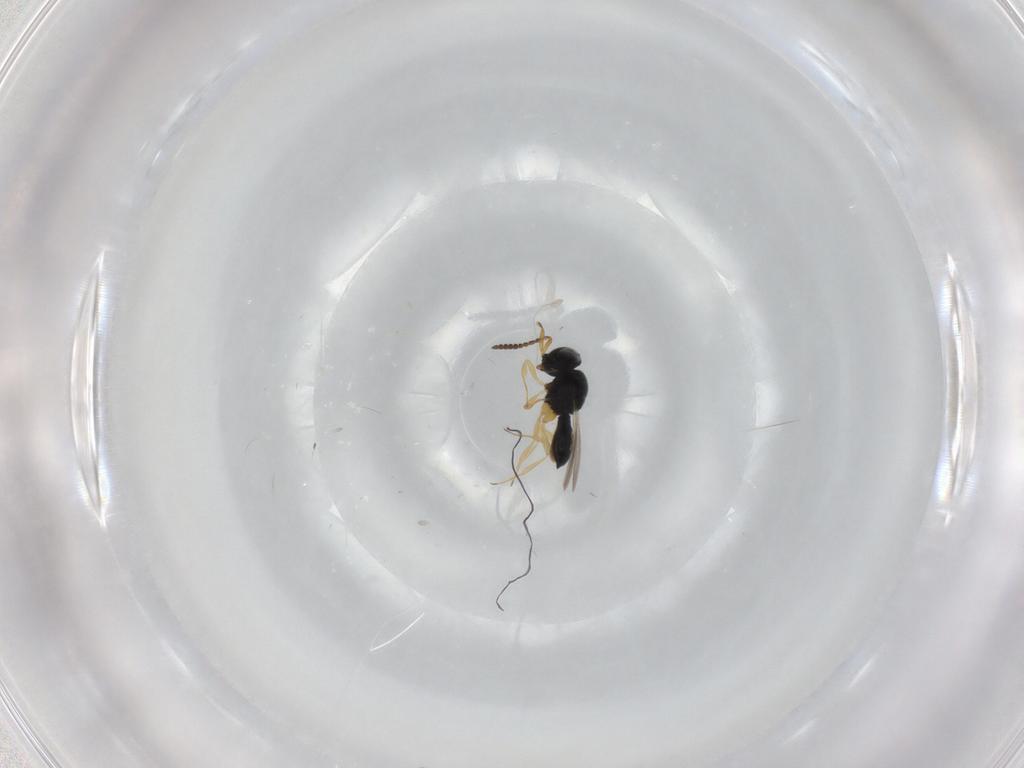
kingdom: Animalia
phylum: Arthropoda
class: Insecta
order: Hymenoptera
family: Scelionidae
